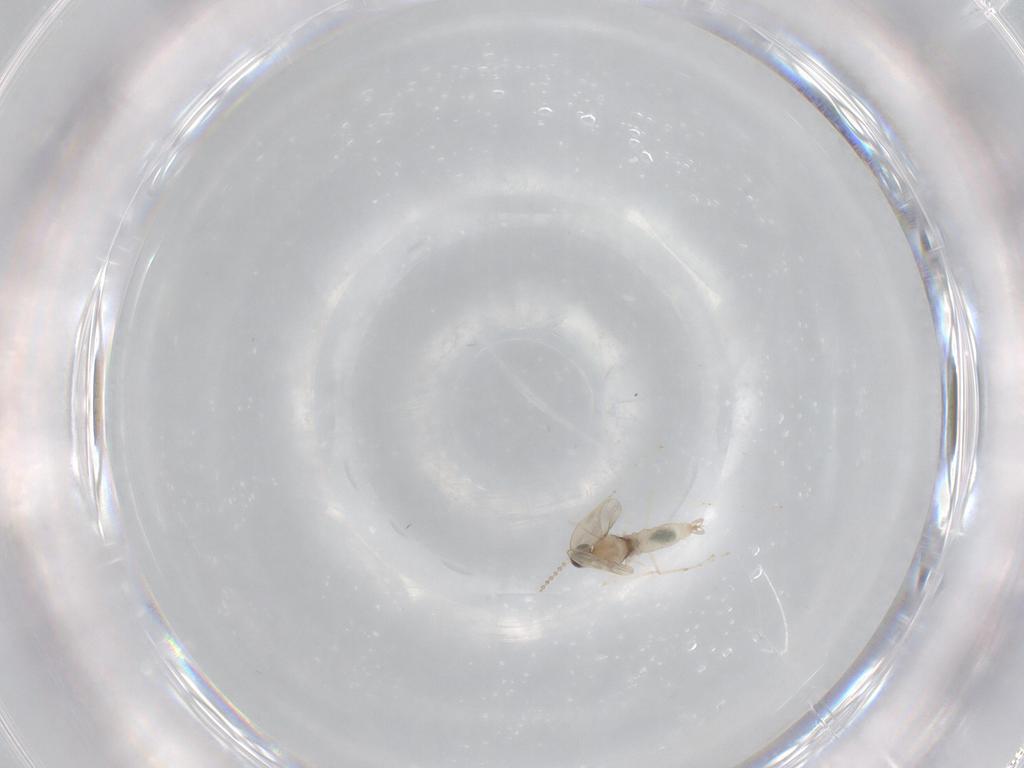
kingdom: Animalia
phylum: Arthropoda
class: Insecta
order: Diptera
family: Cecidomyiidae
